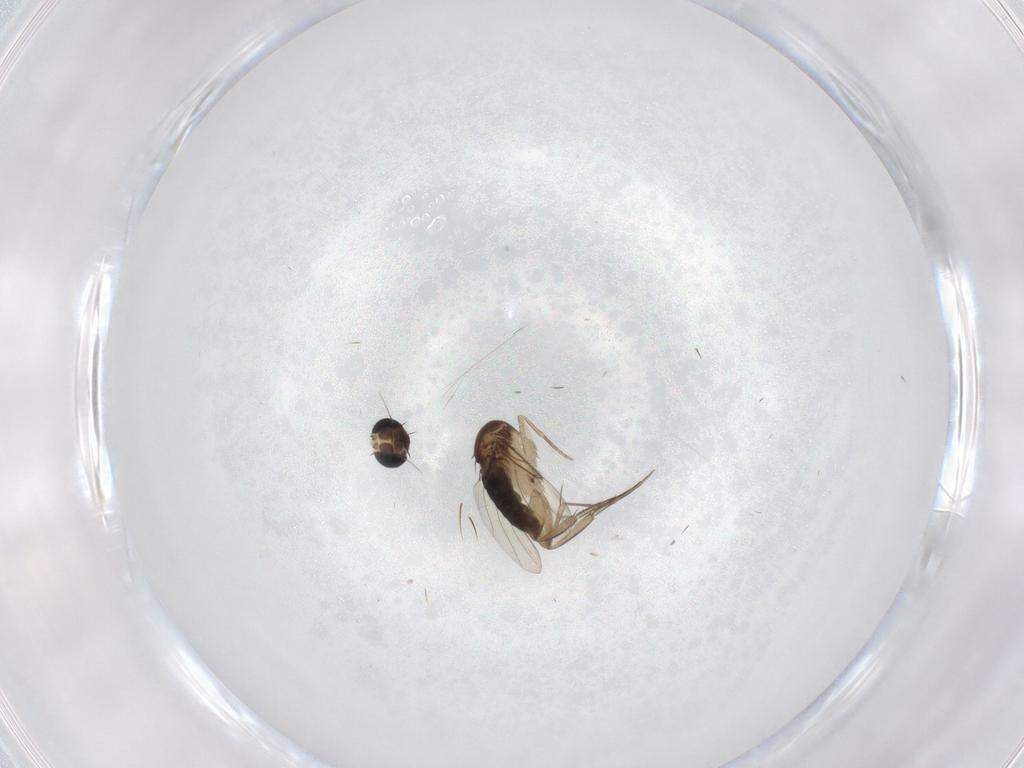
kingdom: Animalia
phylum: Arthropoda
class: Insecta
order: Diptera
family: Phoridae
